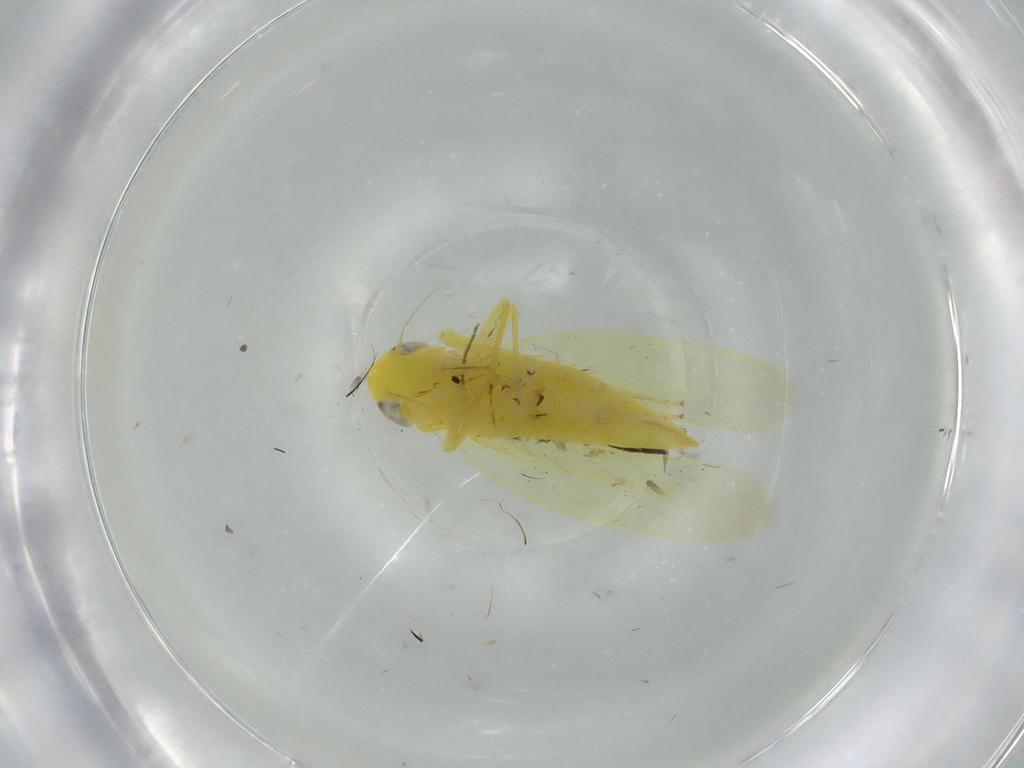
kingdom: Animalia
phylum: Arthropoda
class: Insecta
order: Hemiptera
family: Cicadellidae
